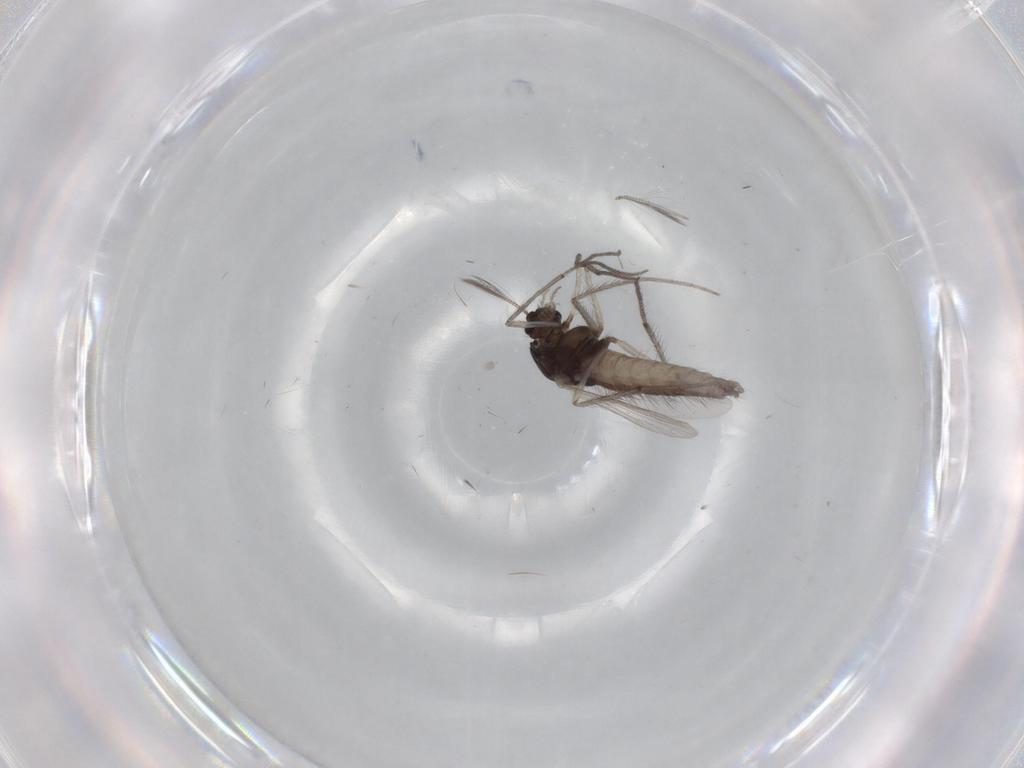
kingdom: Animalia
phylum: Arthropoda
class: Insecta
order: Diptera
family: Chironomidae
